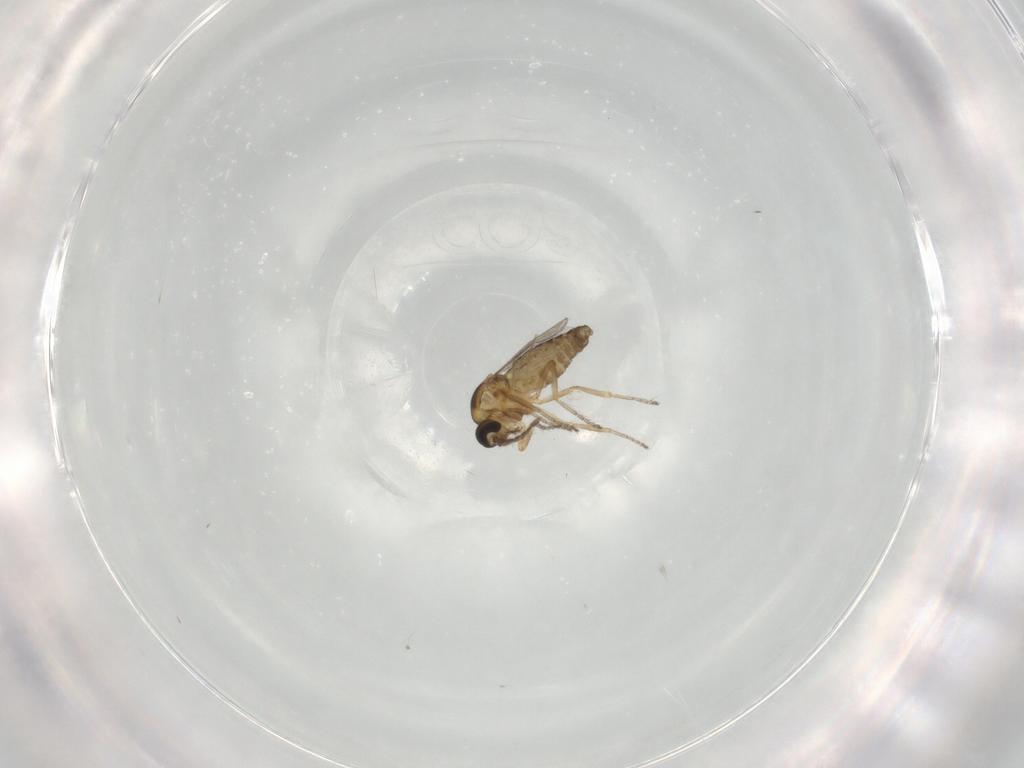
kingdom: Animalia
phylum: Arthropoda
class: Insecta
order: Diptera
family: Ceratopogonidae
